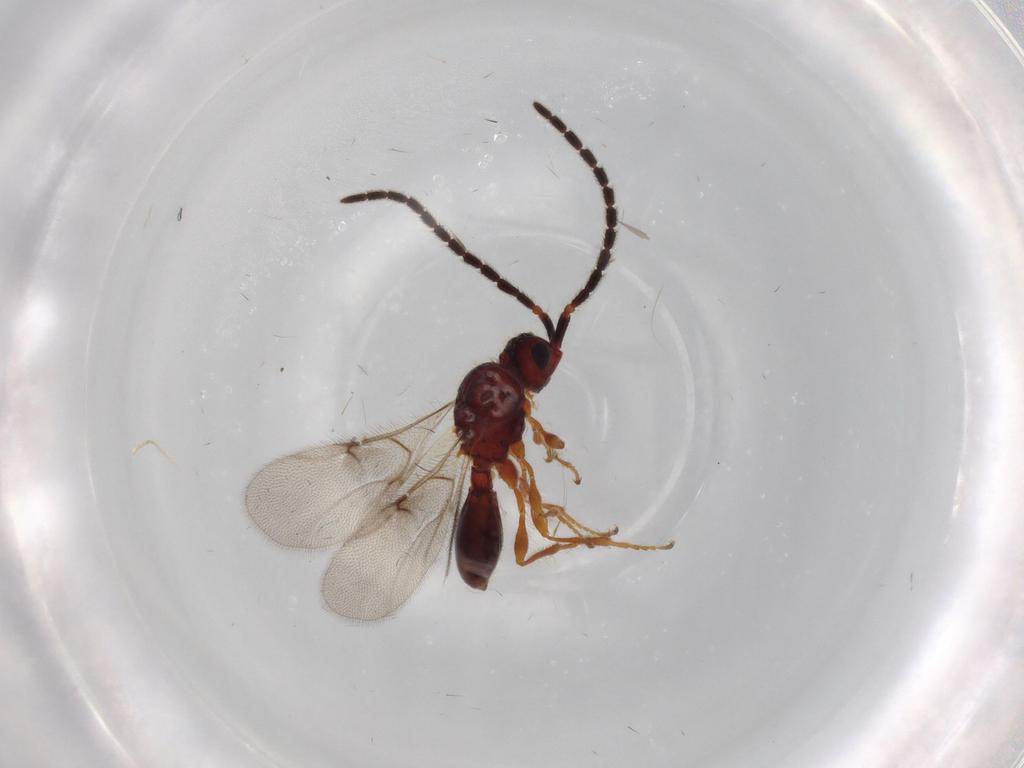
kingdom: Animalia
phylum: Arthropoda
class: Insecta
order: Hymenoptera
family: Diapriidae
